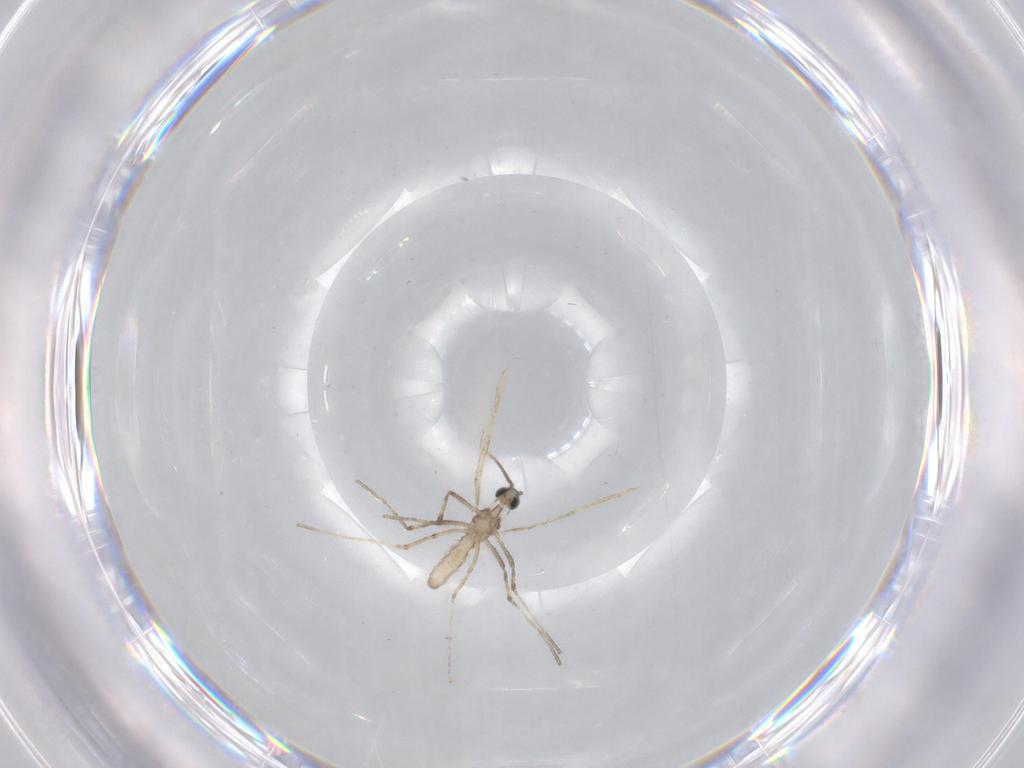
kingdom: Animalia
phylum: Arthropoda
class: Insecta
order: Diptera
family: Cecidomyiidae
